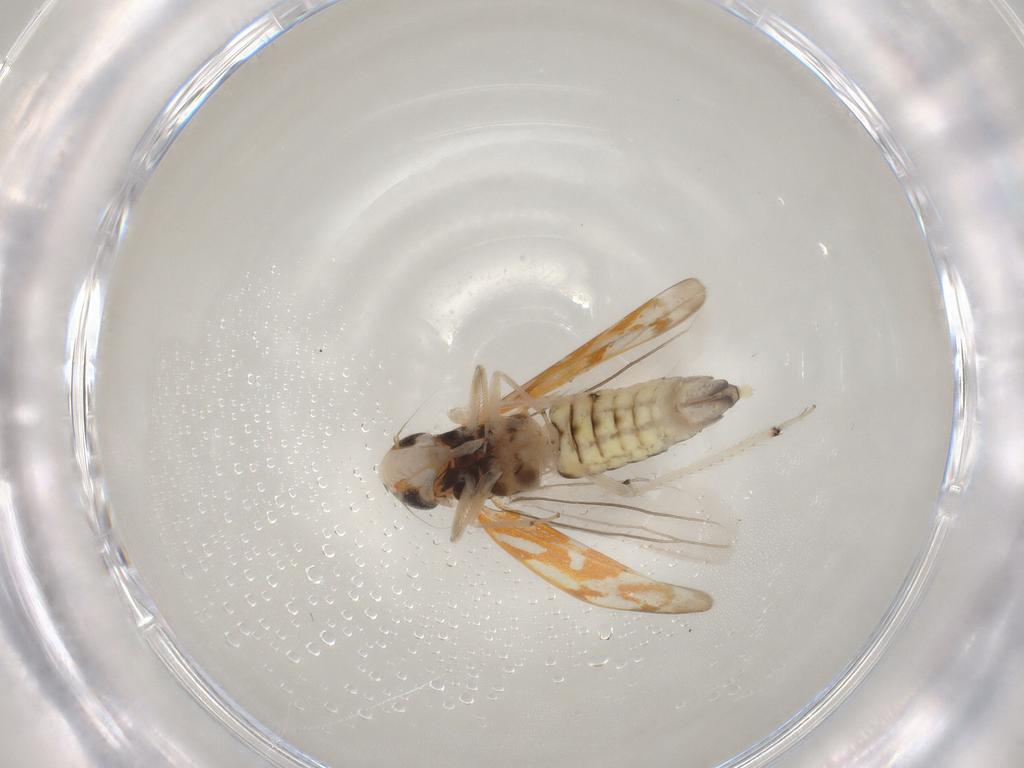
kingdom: Animalia
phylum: Arthropoda
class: Insecta
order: Hemiptera
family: Cicadellidae
